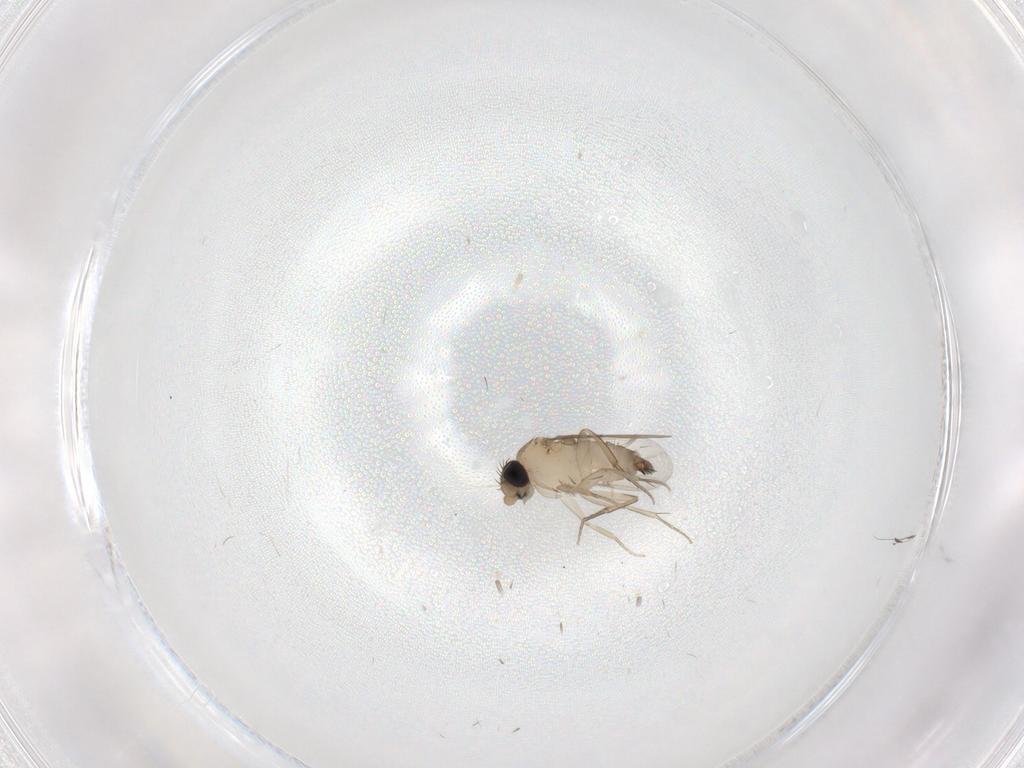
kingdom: Animalia
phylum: Arthropoda
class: Insecta
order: Diptera
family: Phoridae
